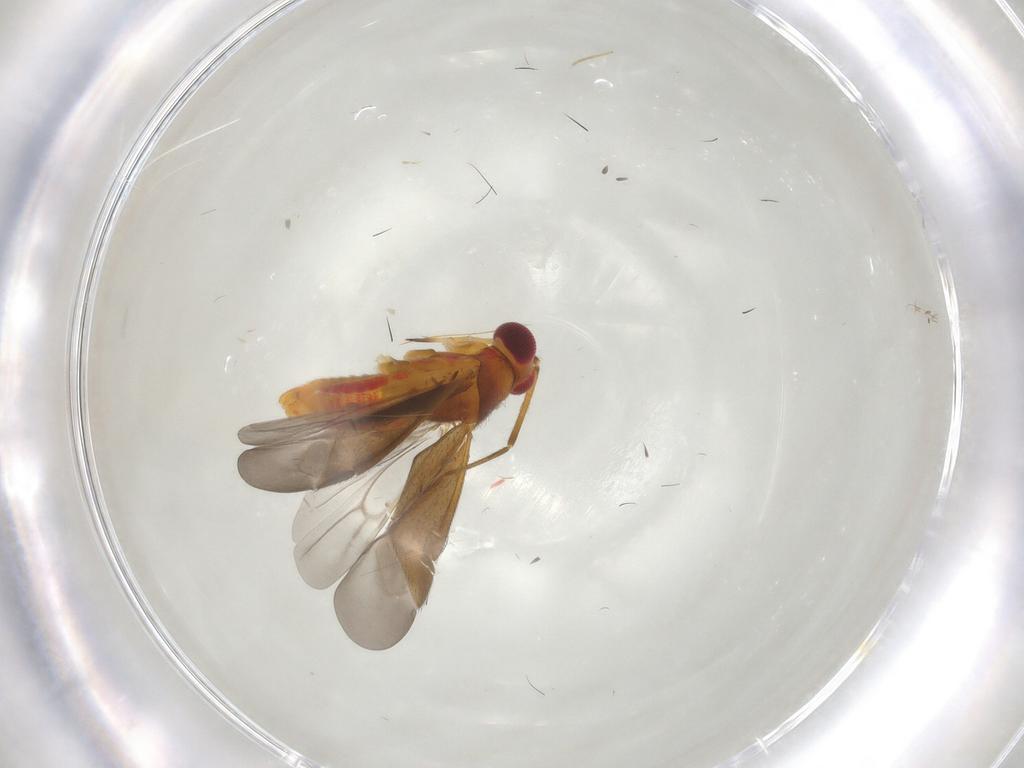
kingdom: Animalia
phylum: Arthropoda
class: Insecta
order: Hemiptera
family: Miridae
